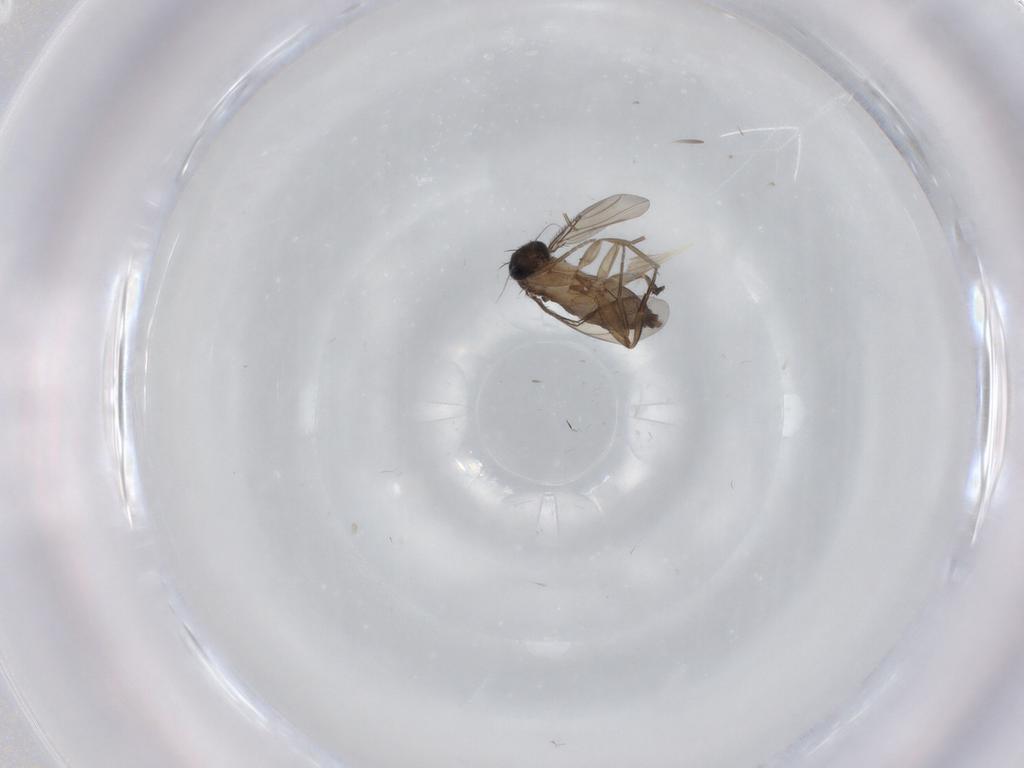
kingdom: Animalia
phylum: Arthropoda
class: Insecta
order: Diptera
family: Phoridae
